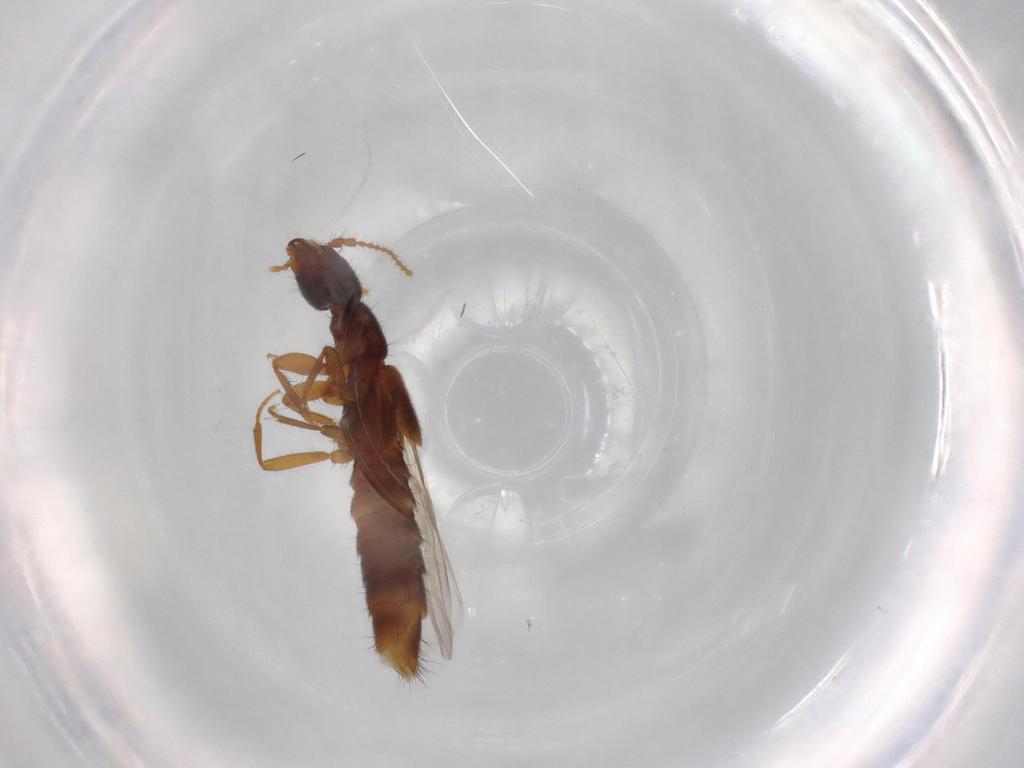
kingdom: Animalia
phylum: Arthropoda
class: Insecta
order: Coleoptera
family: Staphylinidae
